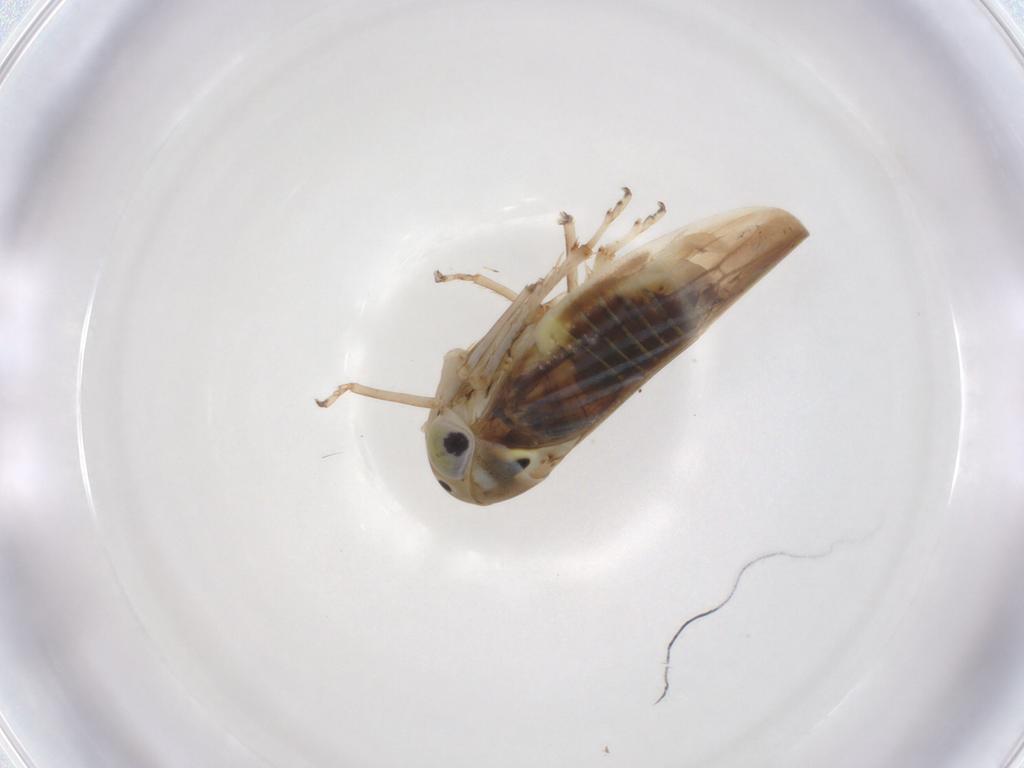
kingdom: Animalia
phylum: Arthropoda
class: Insecta
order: Hemiptera
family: Cicadellidae
